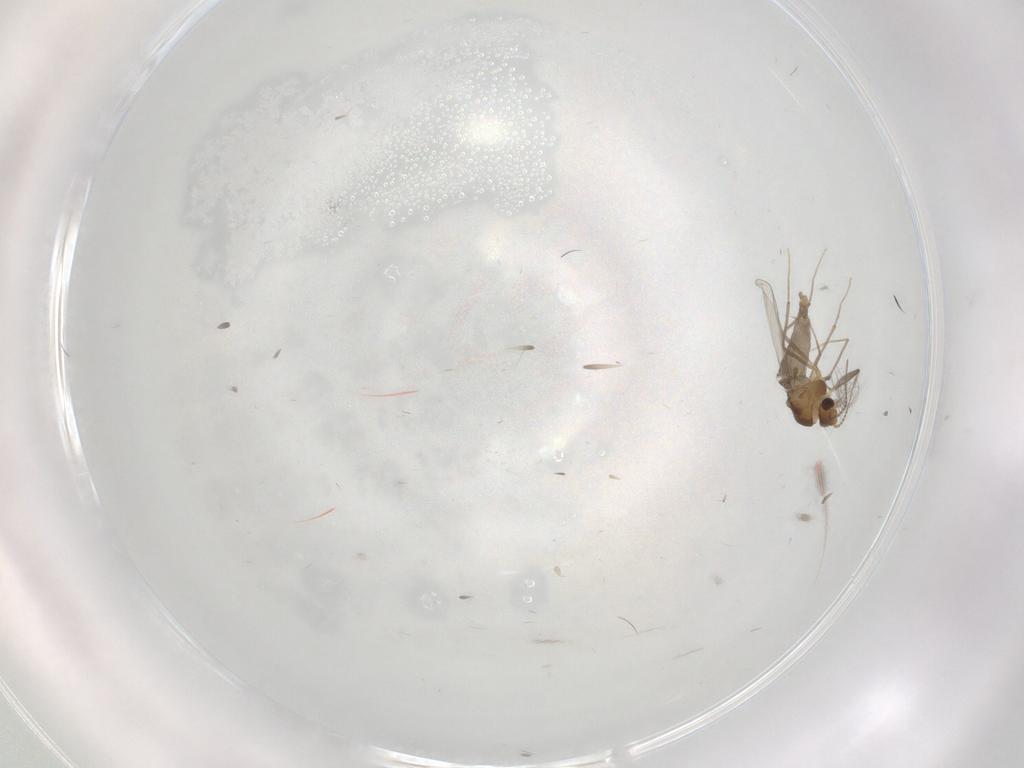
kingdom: Animalia
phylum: Arthropoda
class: Insecta
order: Diptera
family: Chironomidae
